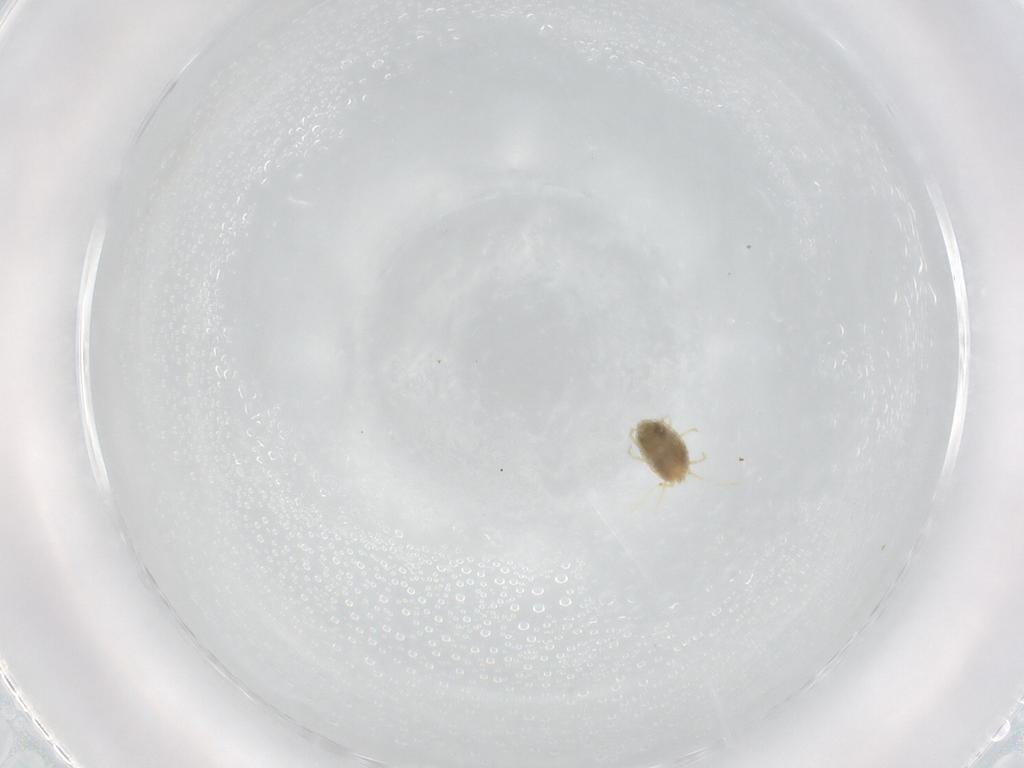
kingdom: Animalia
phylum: Arthropoda
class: Arachnida
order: Trombidiformes
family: Tetranychidae
